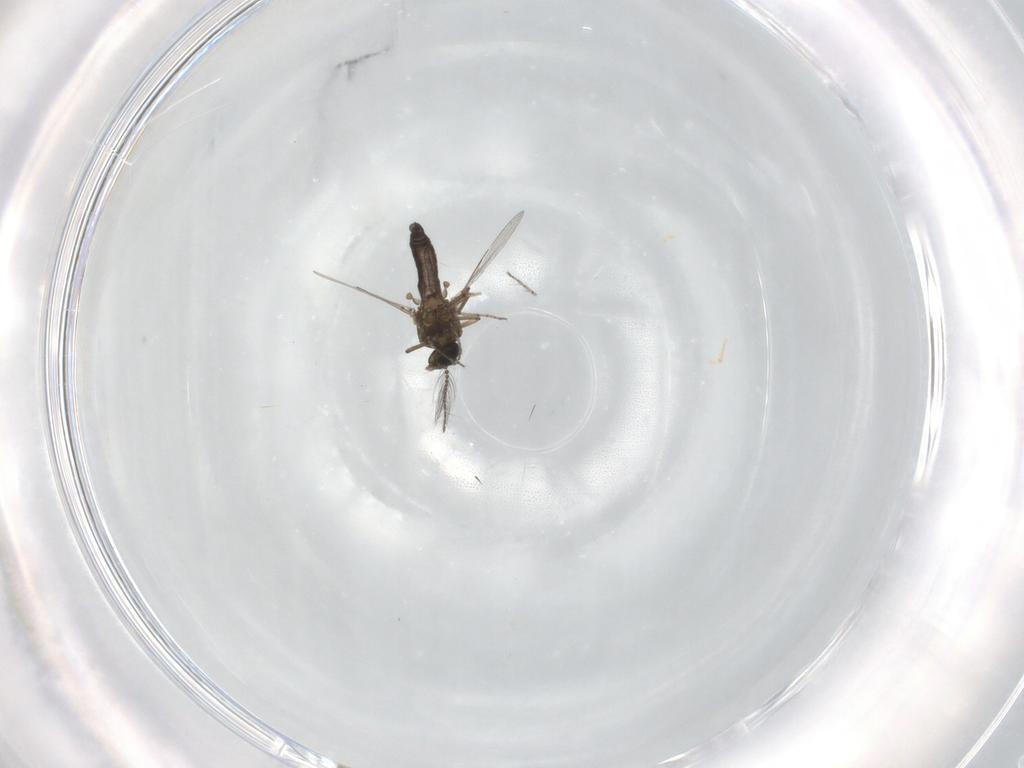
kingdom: Animalia
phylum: Arthropoda
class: Insecta
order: Diptera
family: Ceratopogonidae
